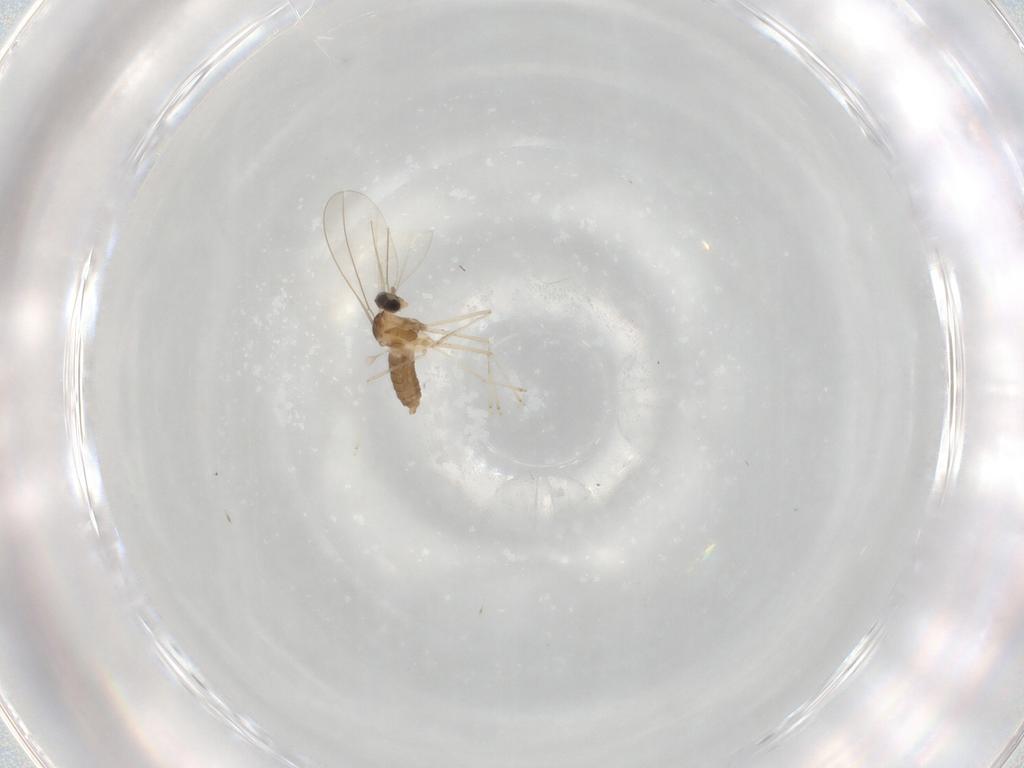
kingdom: Animalia
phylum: Arthropoda
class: Insecta
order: Diptera
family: Cecidomyiidae
